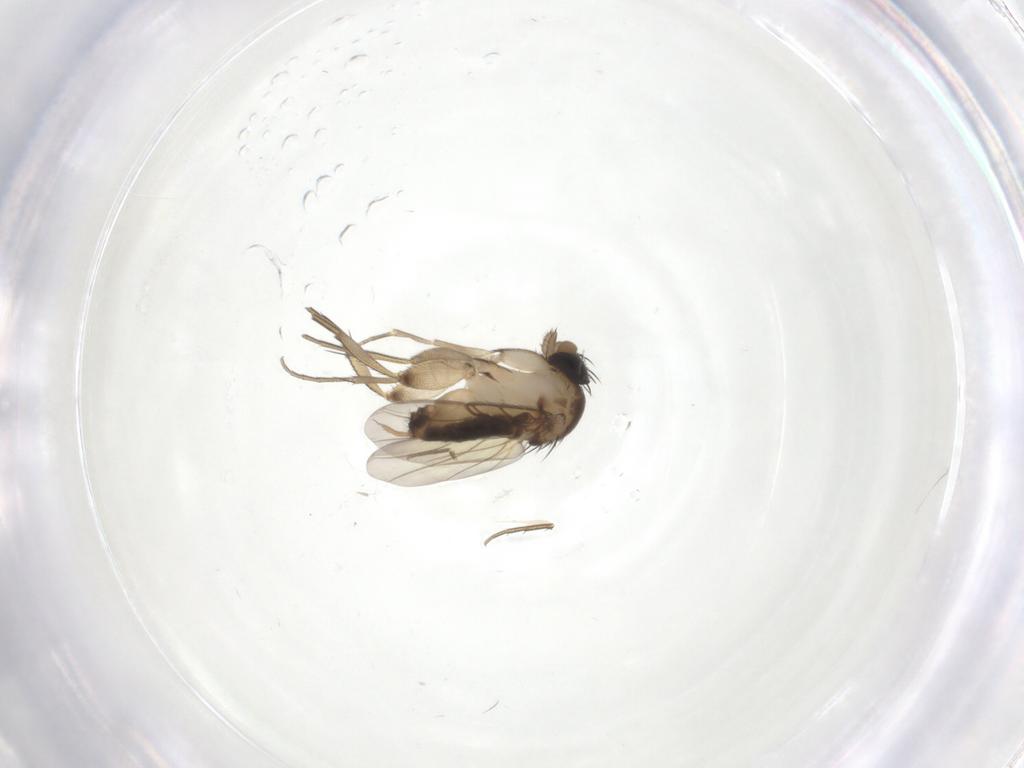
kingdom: Animalia
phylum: Arthropoda
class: Insecta
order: Diptera
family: Phoridae
